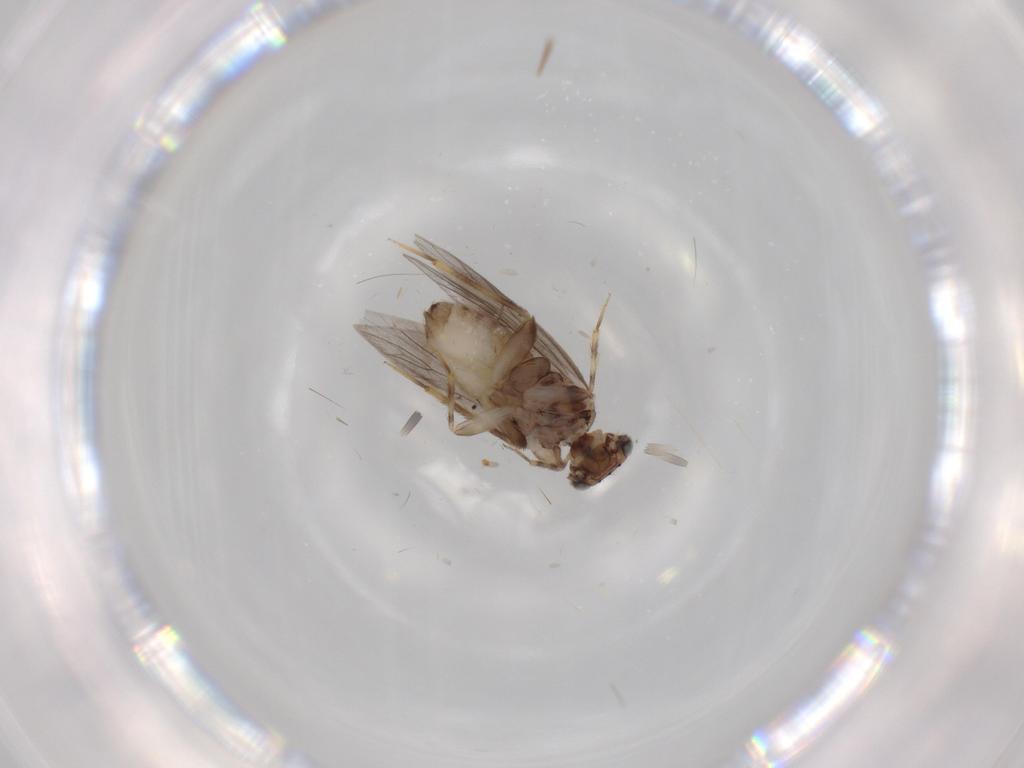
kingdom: Animalia
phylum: Arthropoda
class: Insecta
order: Psocodea
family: Lepidopsocidae
